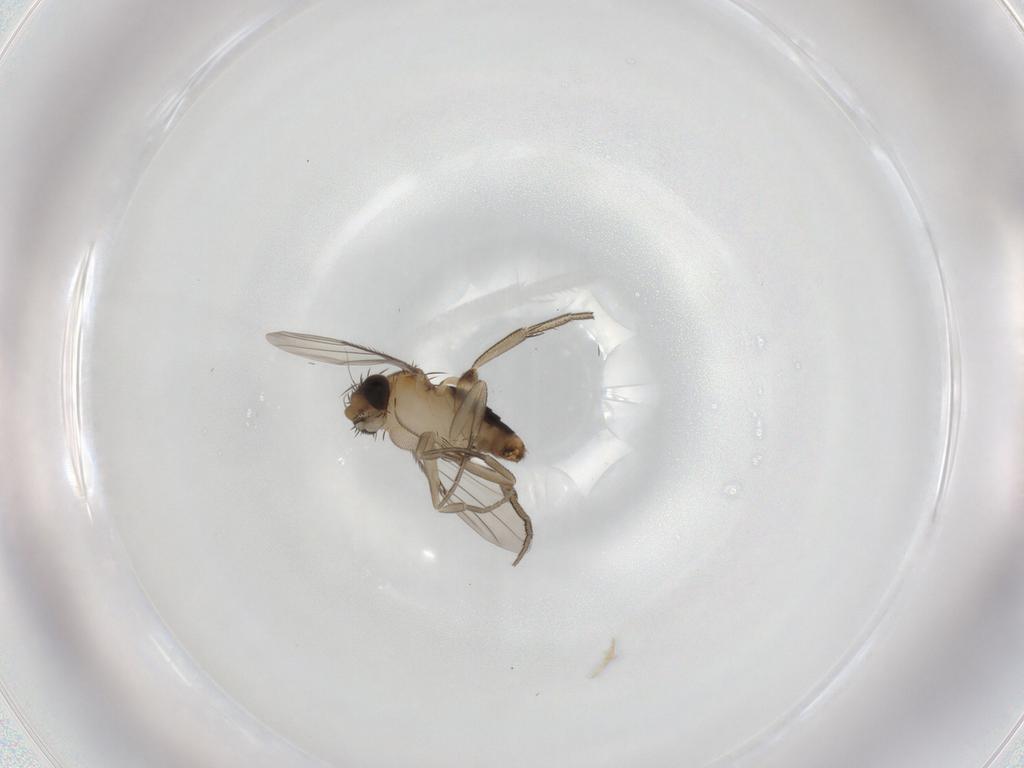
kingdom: Animalia
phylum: Arthropoda
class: Insecta
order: Diptera
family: Phoridae
